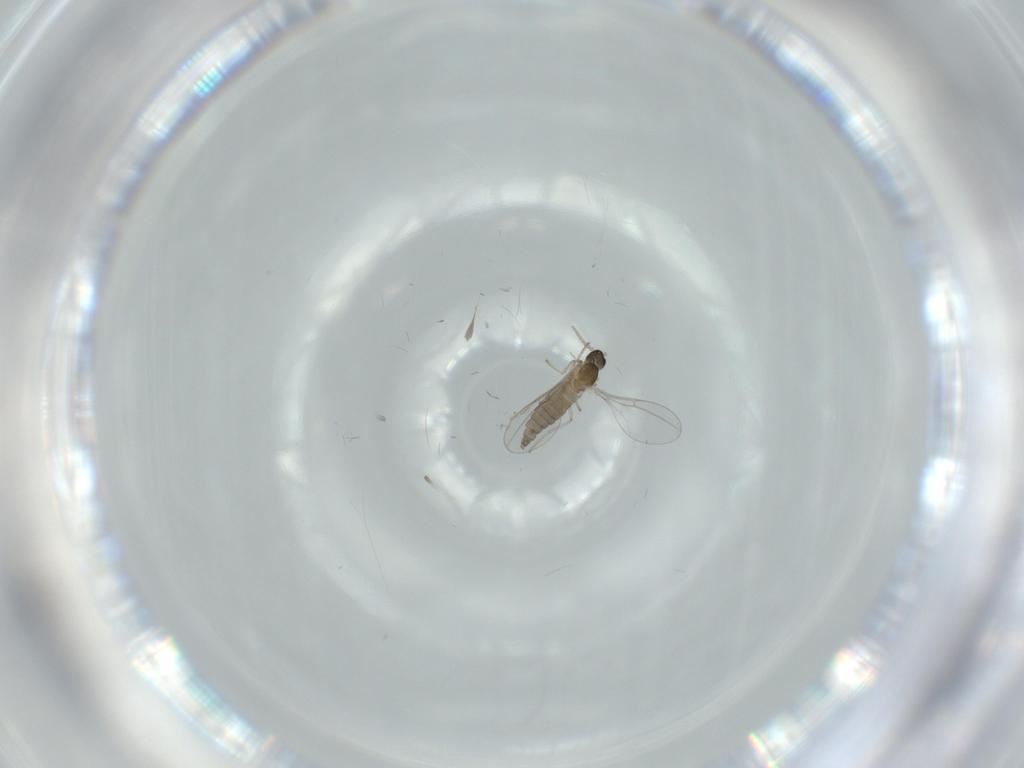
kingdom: Animalia
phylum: Arthropoda
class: Insecta
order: Diptera
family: Cecidomyiidae
